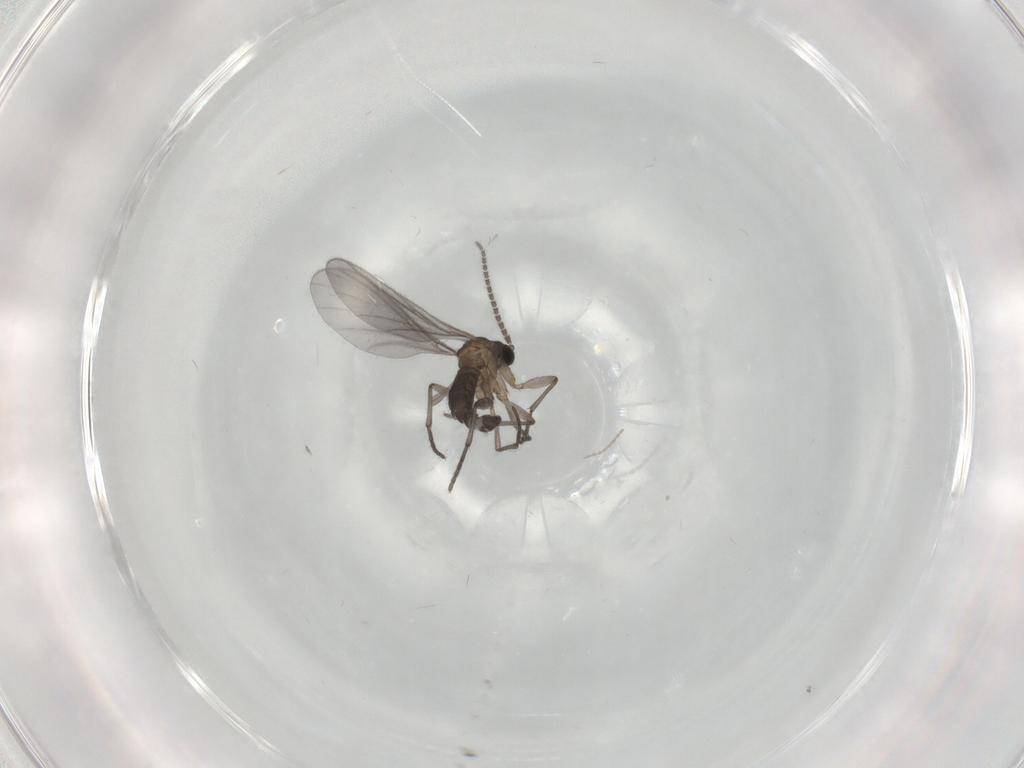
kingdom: Animalia
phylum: Arthropoda
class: Insecta
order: Diptera
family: Sciaridae
